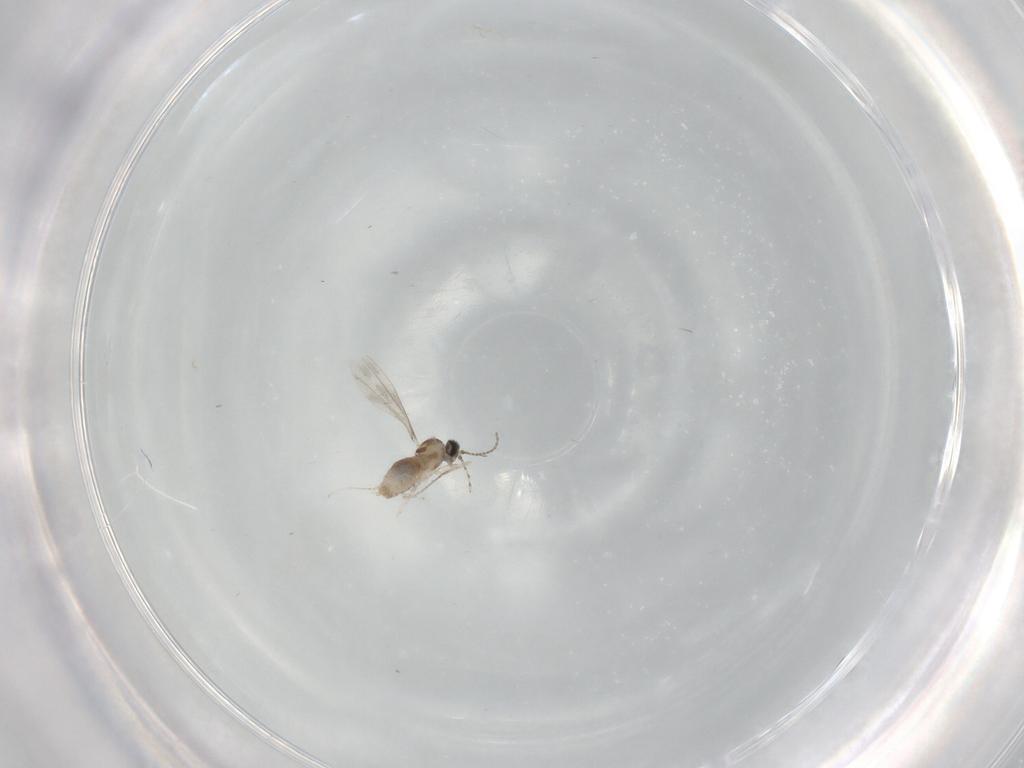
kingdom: Animalia
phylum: Arthropoda
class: Insecta
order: Diptera
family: Cecidomyiidae
